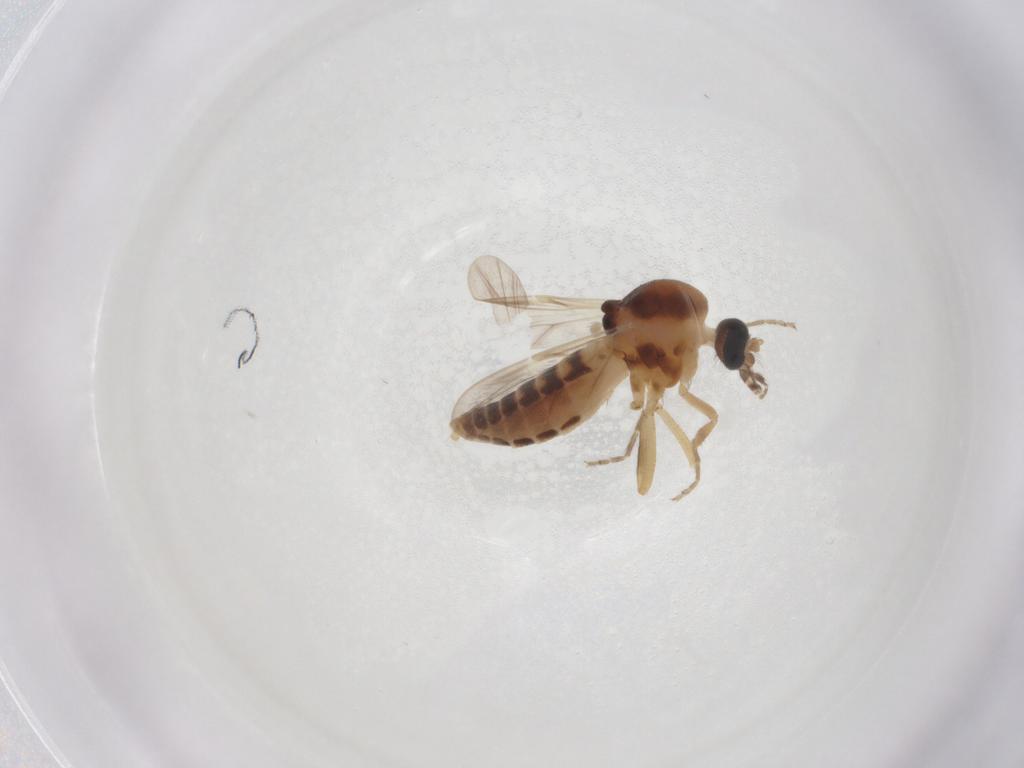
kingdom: Animalia
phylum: Arthropoda
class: Insecta
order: Diptera
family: Ceratopogonidae
